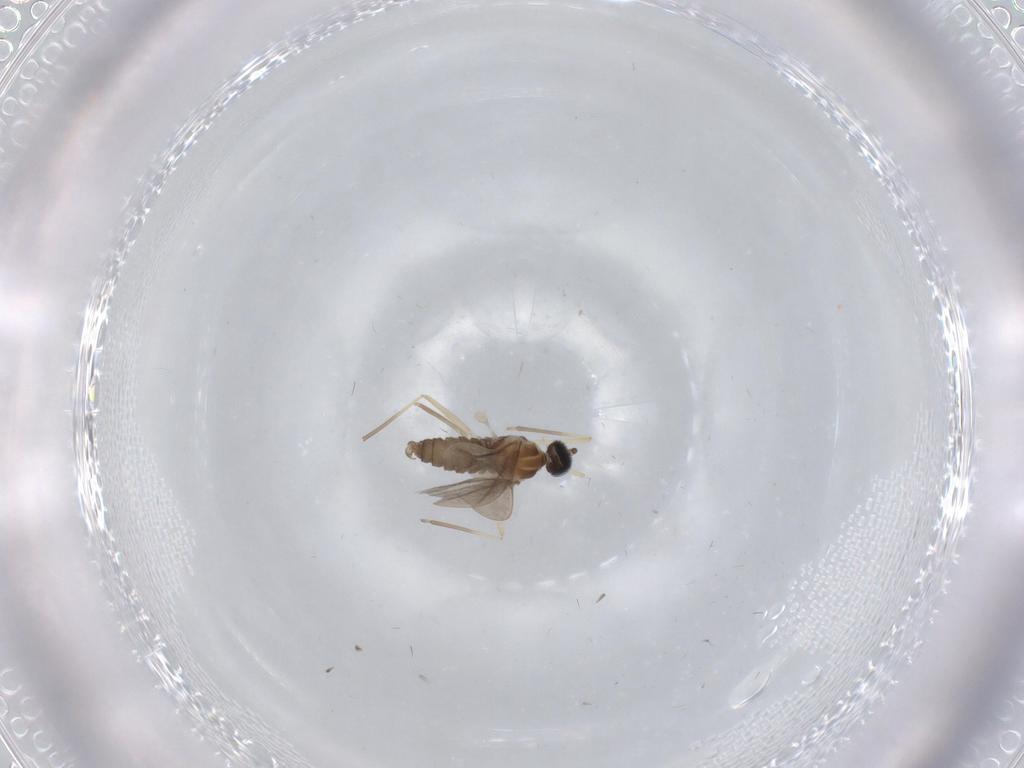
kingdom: Animalia
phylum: Arthropoda
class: Insecta
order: Diptera
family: Cecidomyiidae
